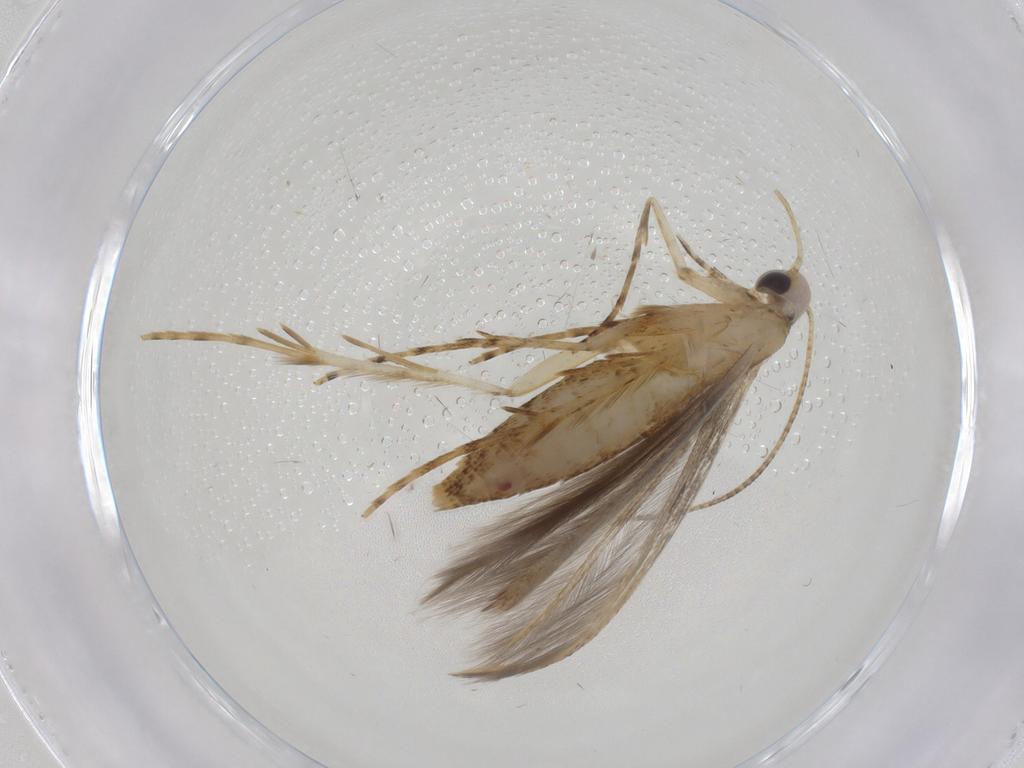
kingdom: Animalia
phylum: Arthropoda
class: Insecta
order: Lepidoptera
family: Batrachedridae
